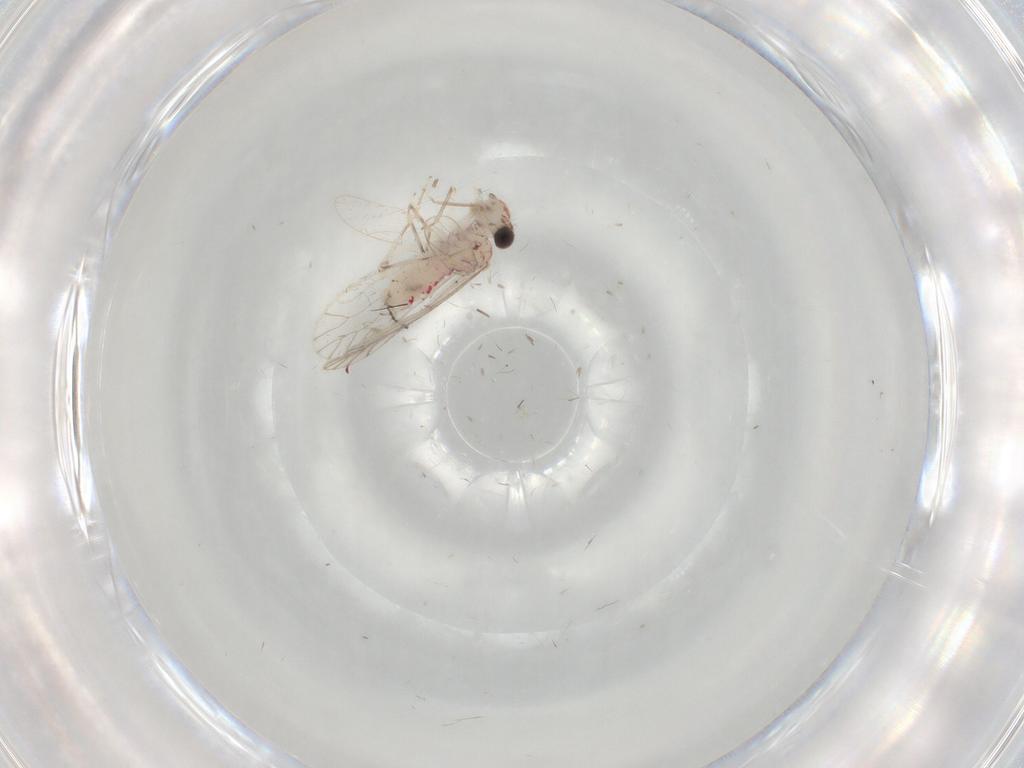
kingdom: Animalia
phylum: Arthropoda
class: Insecta
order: Psocodea
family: Caeciliusidae
